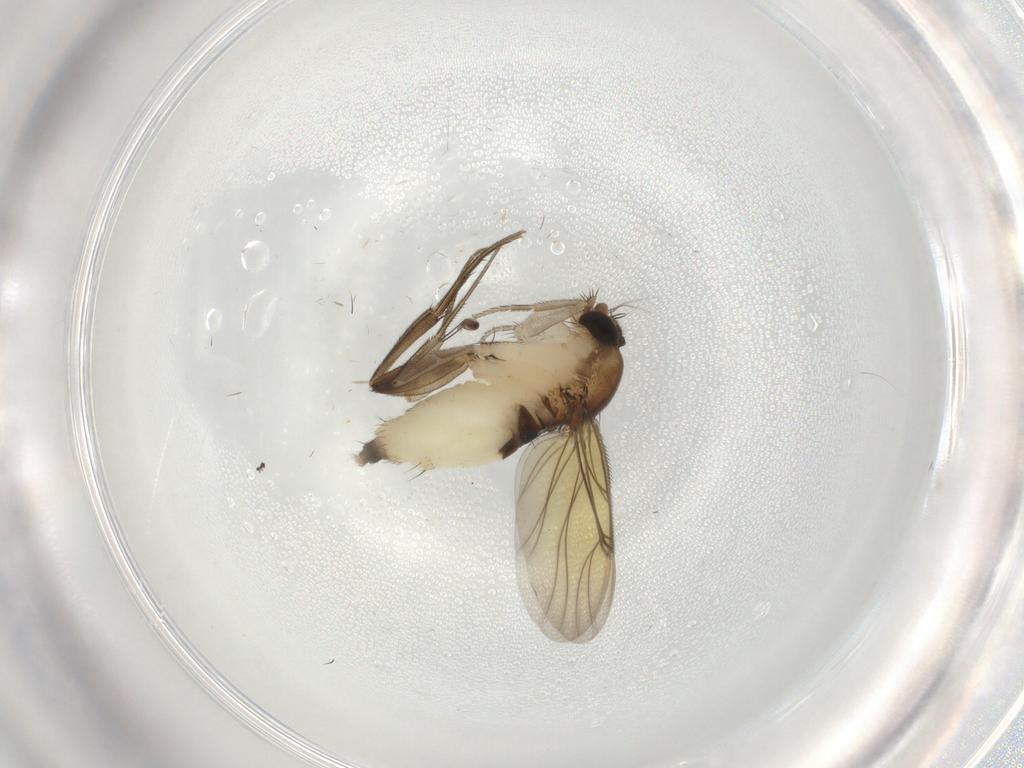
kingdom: Animalia
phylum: Arthropoda
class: Insecta
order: Diptera
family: Phoridae
